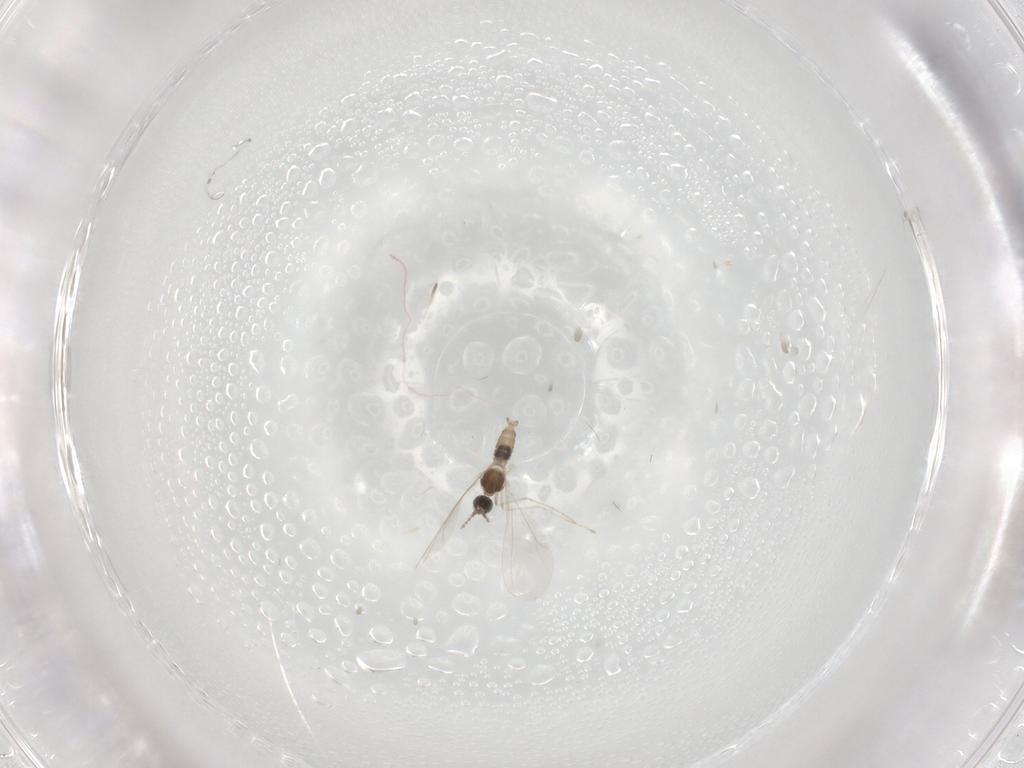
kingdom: Animalia
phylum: Arthropoda
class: Insecta
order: Diptera
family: Cecidomyiidae
